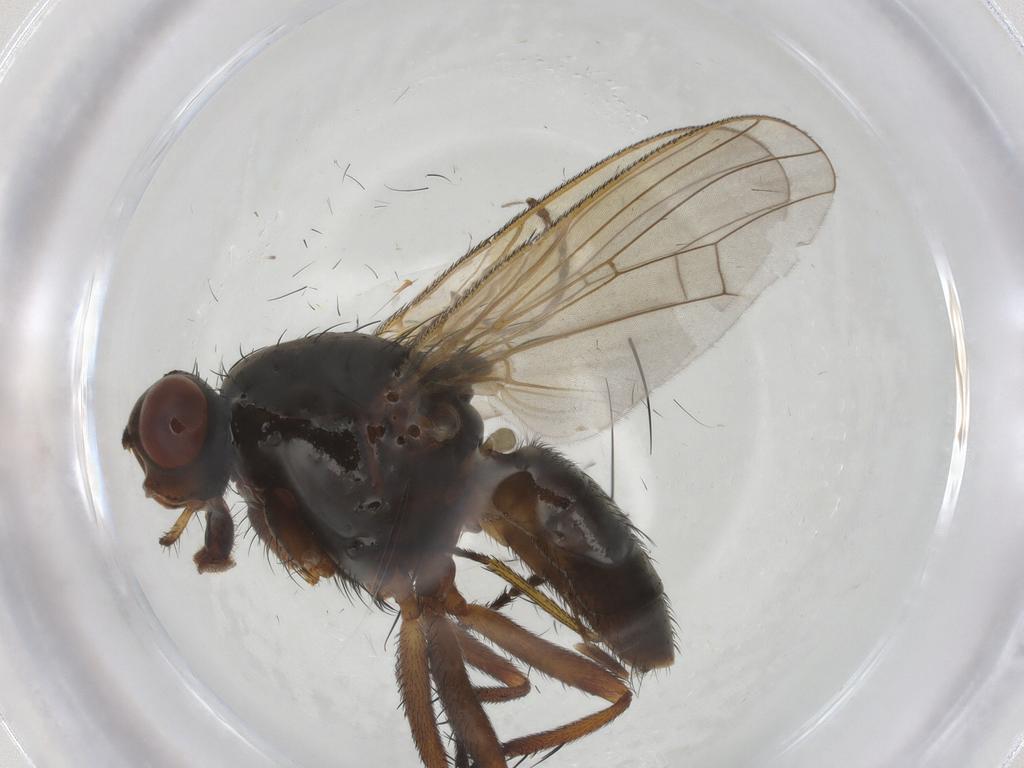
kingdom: Animalia
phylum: Arthropoda
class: Insecta
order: Diptera
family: Anthomyiidae
